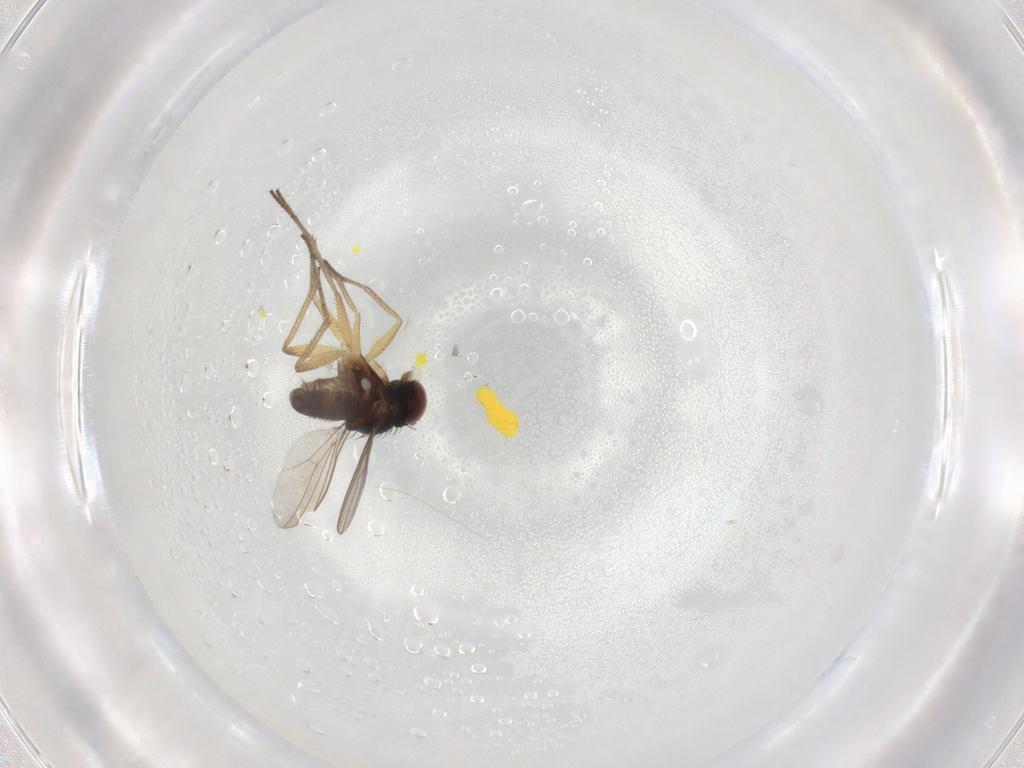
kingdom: Animalia
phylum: Arthropoda
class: Insecta
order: Diptera
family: Dolichopodidae
